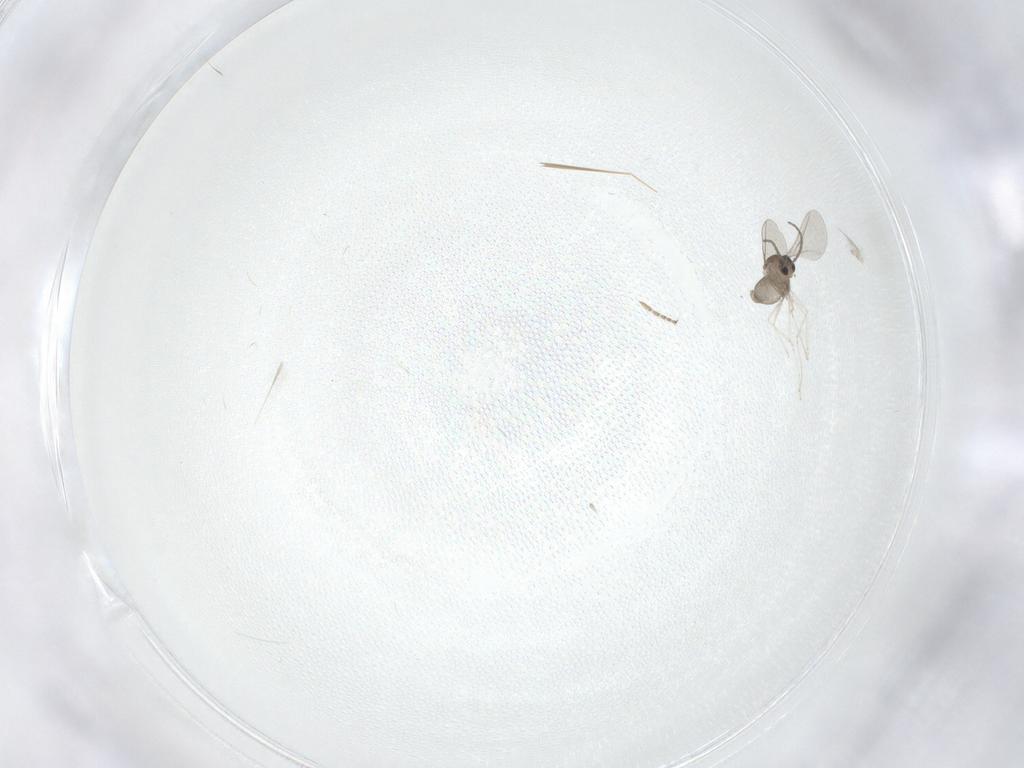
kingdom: Animalia
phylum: Arthropoda
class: Insecta
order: Diptera
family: Ceratopogonidae
